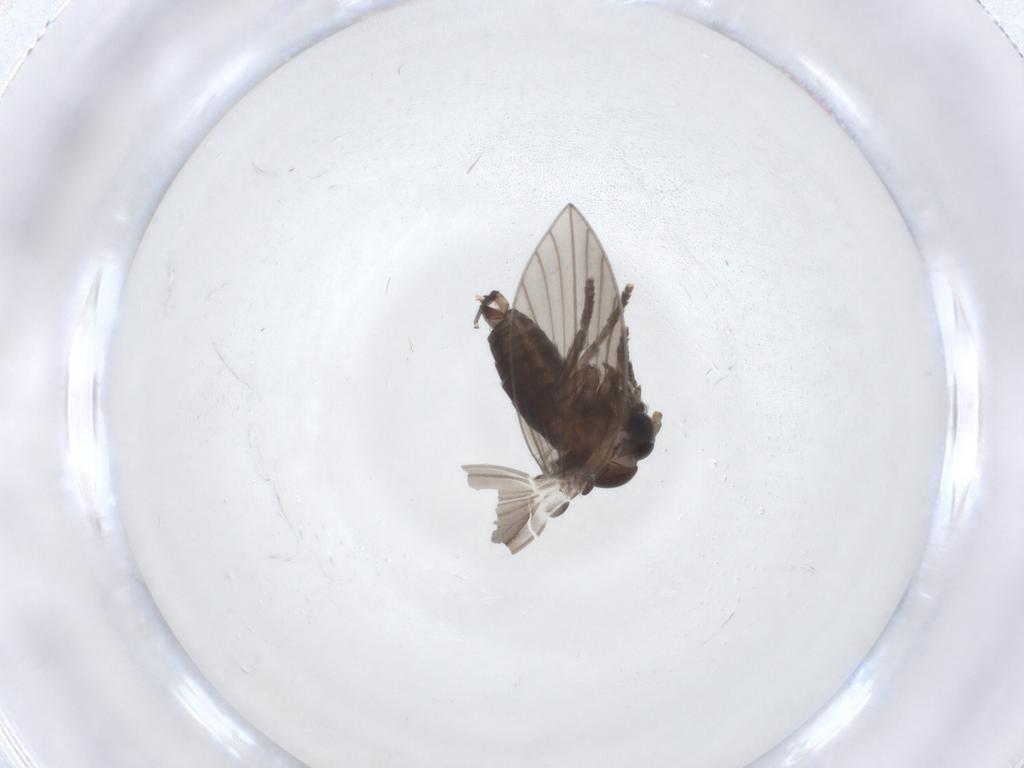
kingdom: Animalia
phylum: Arthropoda
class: Insecta
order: Diptera
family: Psychodidae
